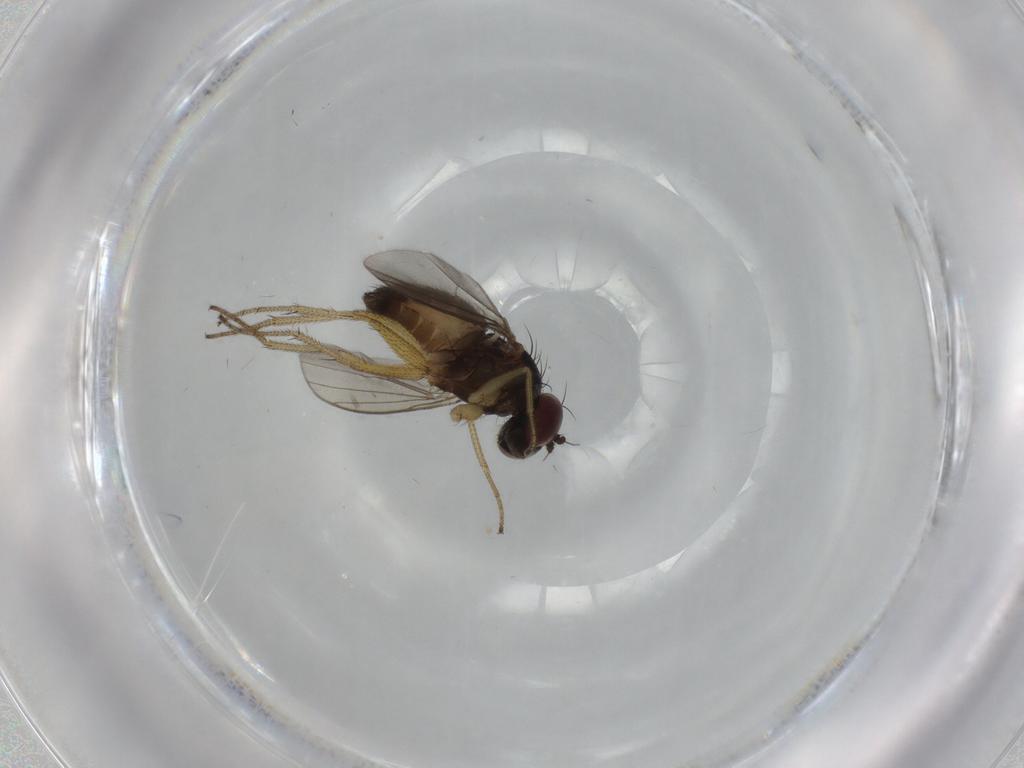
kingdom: Animalia
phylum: Arthropoda
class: Insecta
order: Diptera
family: Dolichopodidae
